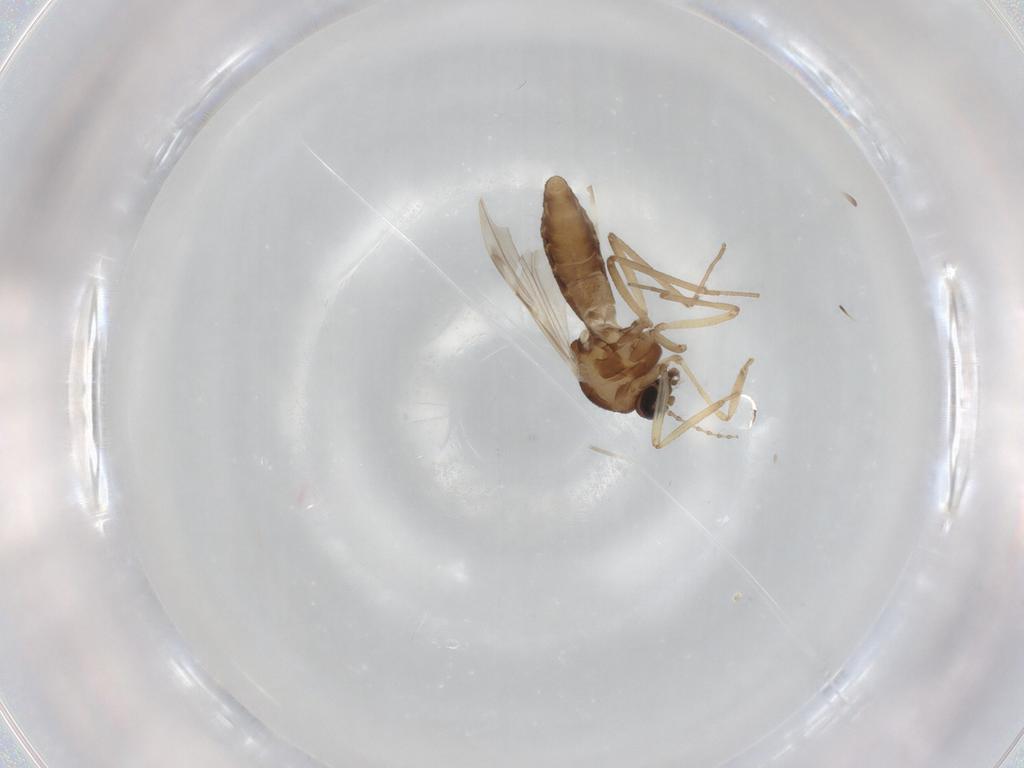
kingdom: Animalia
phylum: Arthropoda
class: Insecta
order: Diptera
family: Ceratopogonidae
